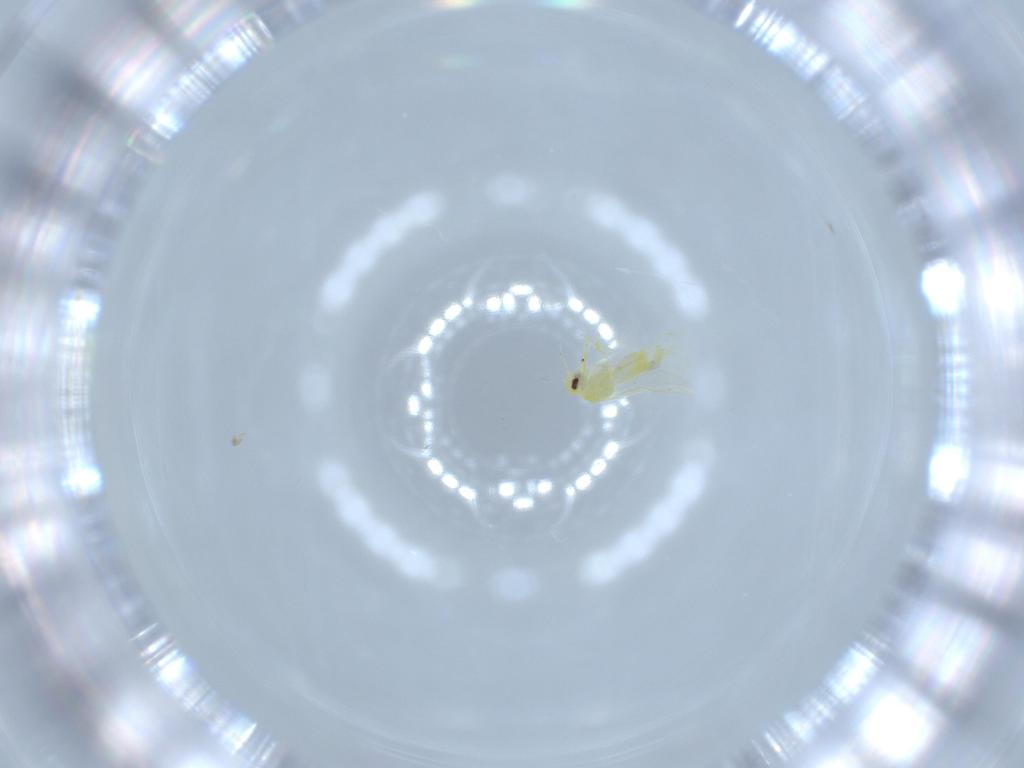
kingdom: Animalia
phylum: Arthropoda
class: Insecta
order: Hemiptera
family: Aleyrodidae
